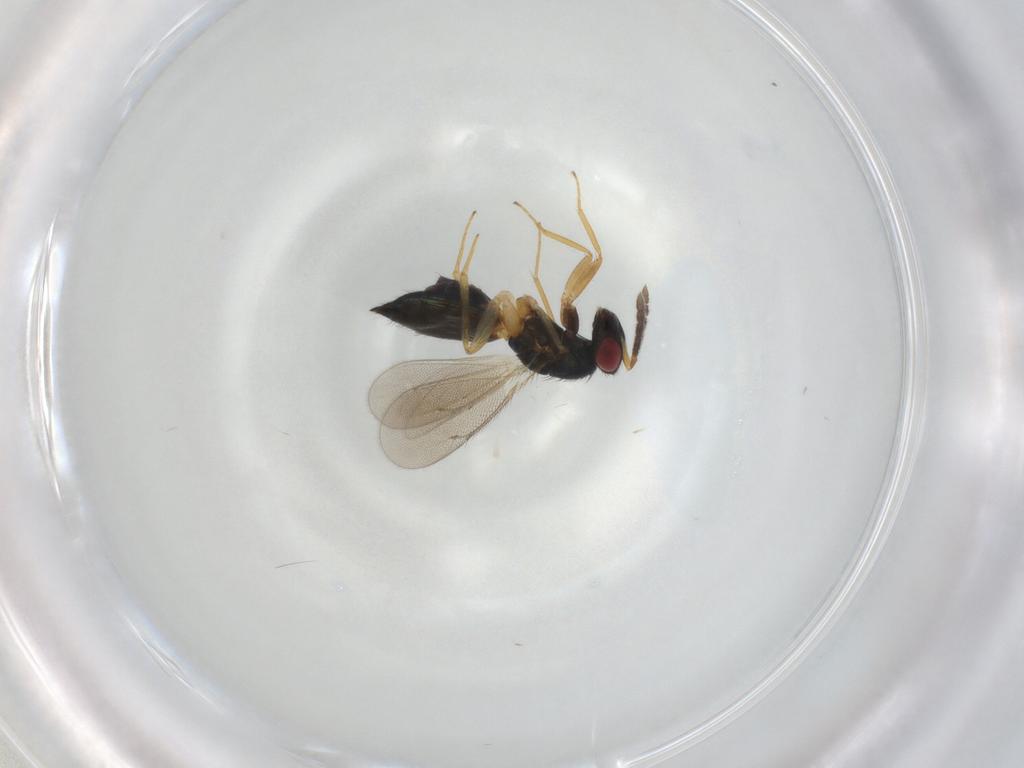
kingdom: Animalia
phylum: Arthropoda
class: Insecta
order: Hymenoptera
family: Eulophidae
